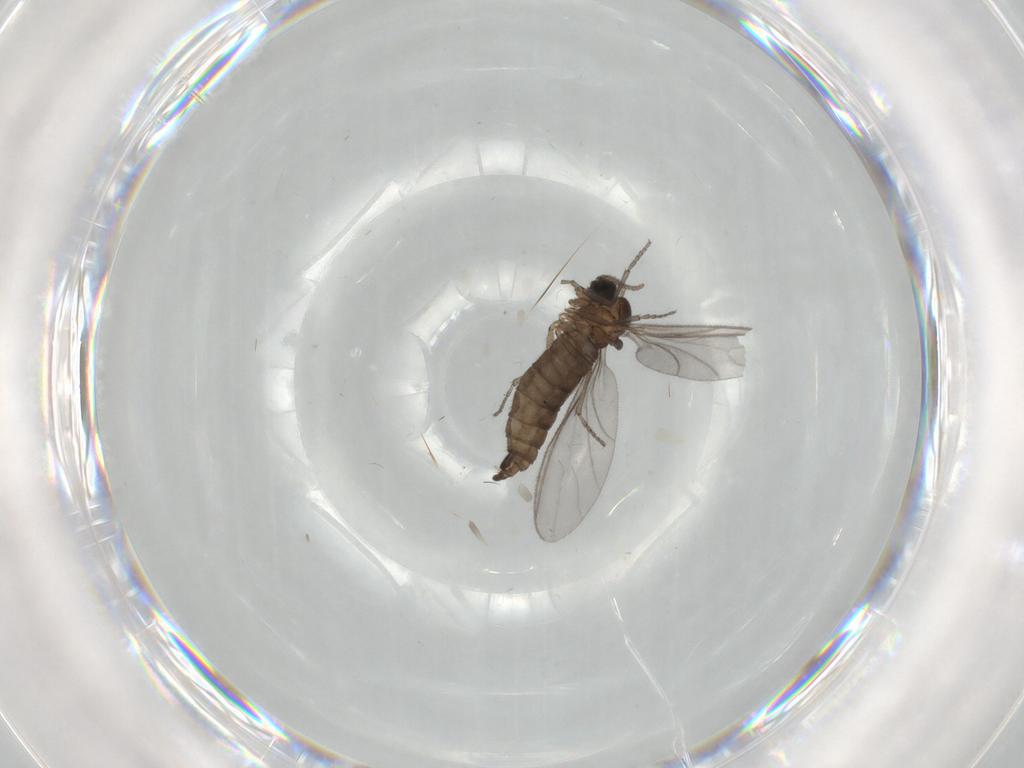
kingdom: Animalia
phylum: Arthropoda
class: Insecta
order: Diptera
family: Sciaridae
